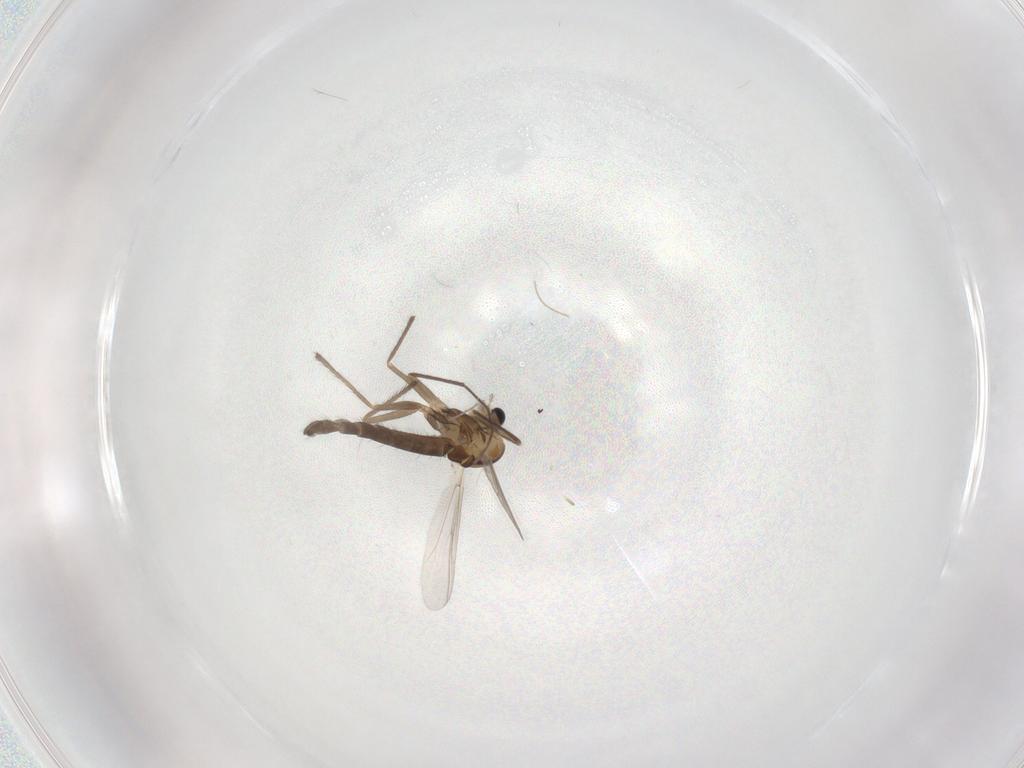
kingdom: Animalia
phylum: Arthropoda
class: Insecta
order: Diptera
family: Chironomidae
